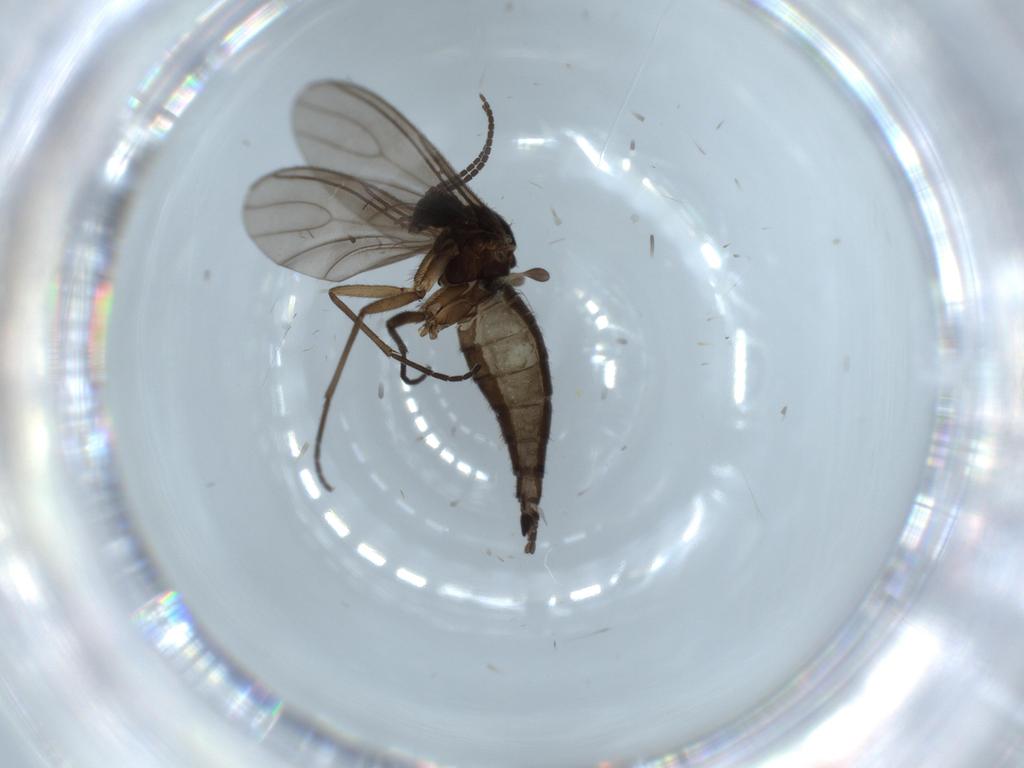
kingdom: Animalia
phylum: Arthropoda
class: Insecta
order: Diptera
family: Sciaridae
